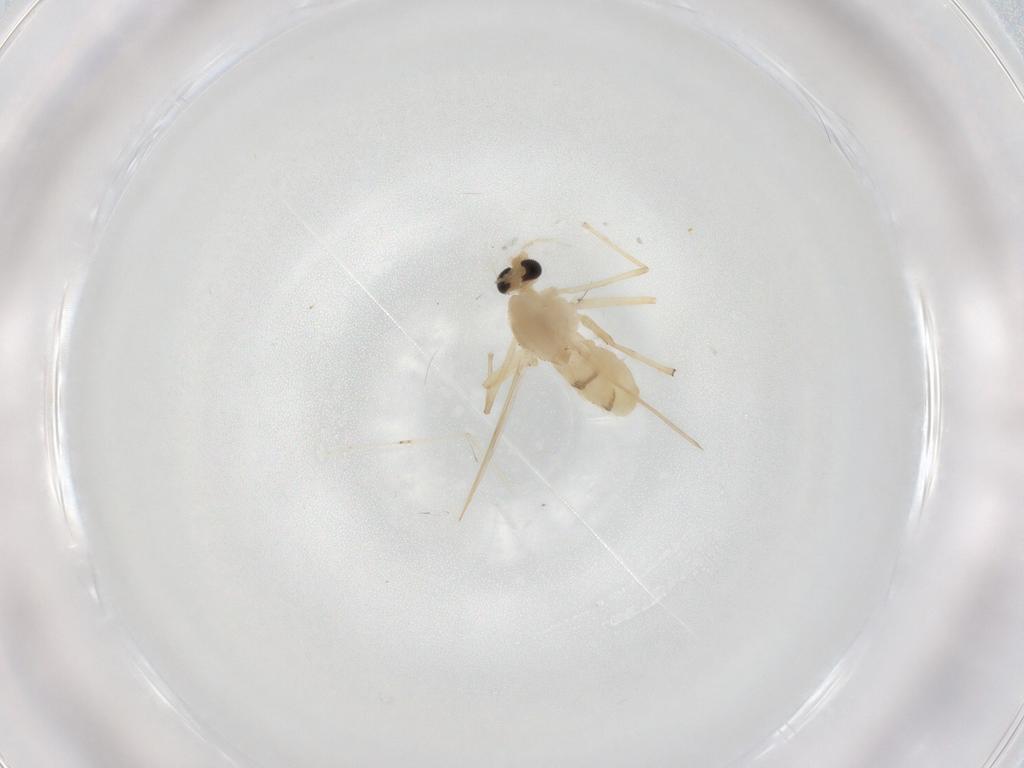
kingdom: Animalia
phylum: Arthropoda
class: Insecta
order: Diptera
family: Chironomidae
